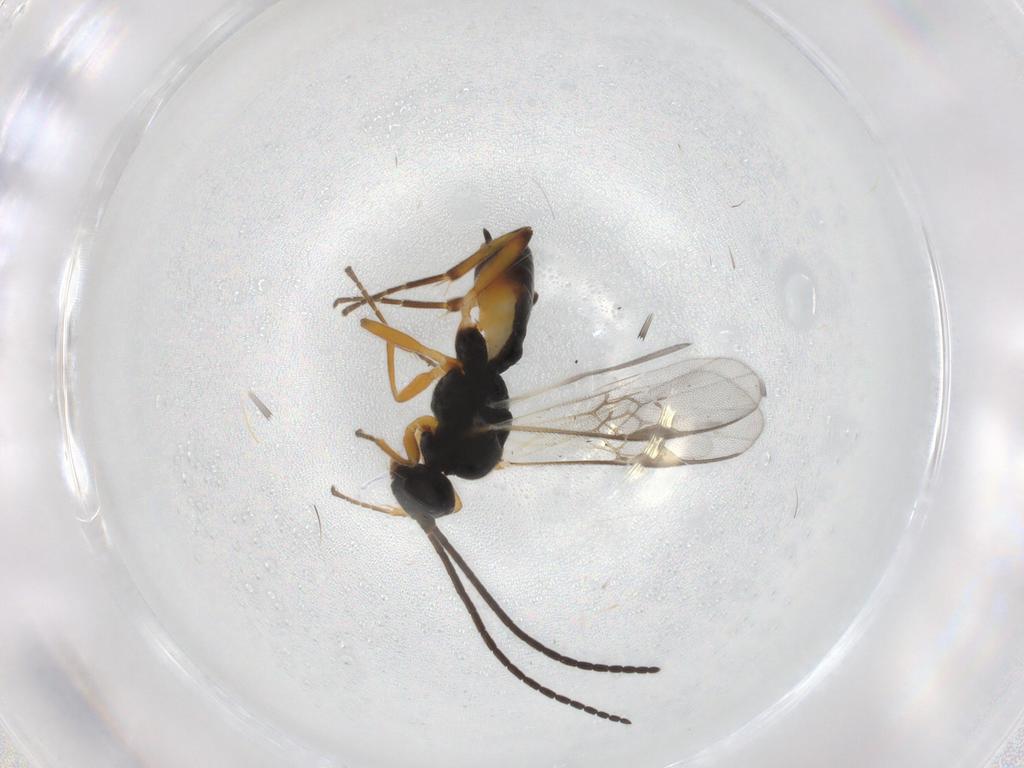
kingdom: Animalia
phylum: Arthropoda
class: Insecta
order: Hymenoptera
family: Braconidae
